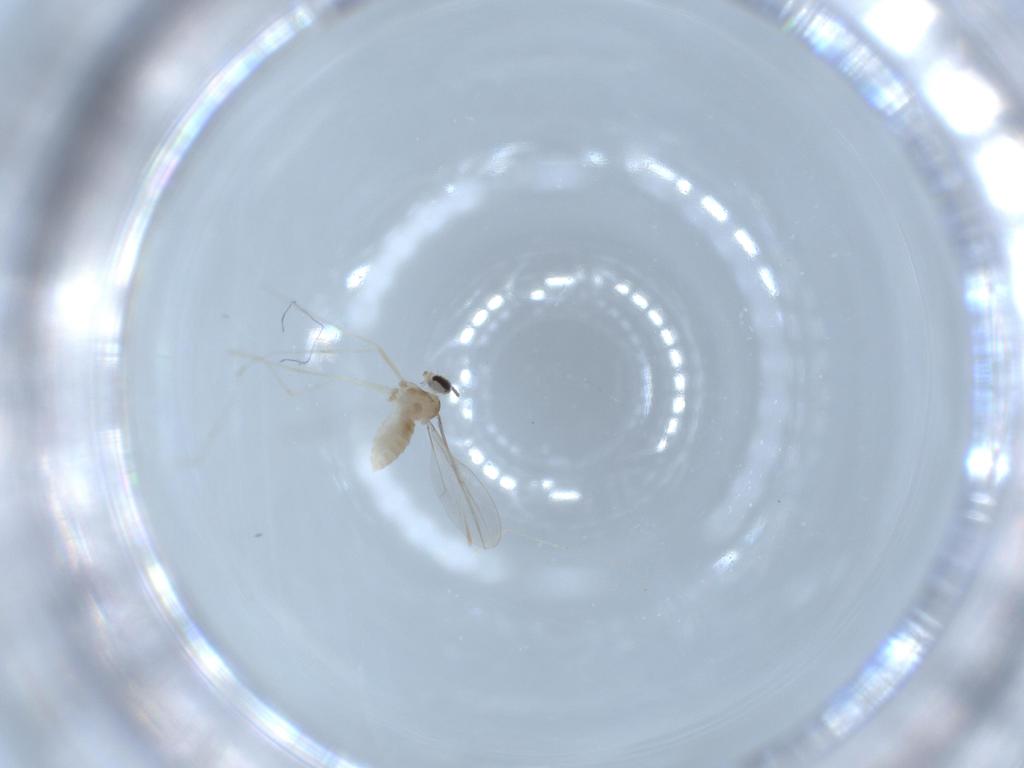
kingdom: Animalia
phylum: Arthropoda
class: Insecta
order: Diptera
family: Cecidomyiidae
